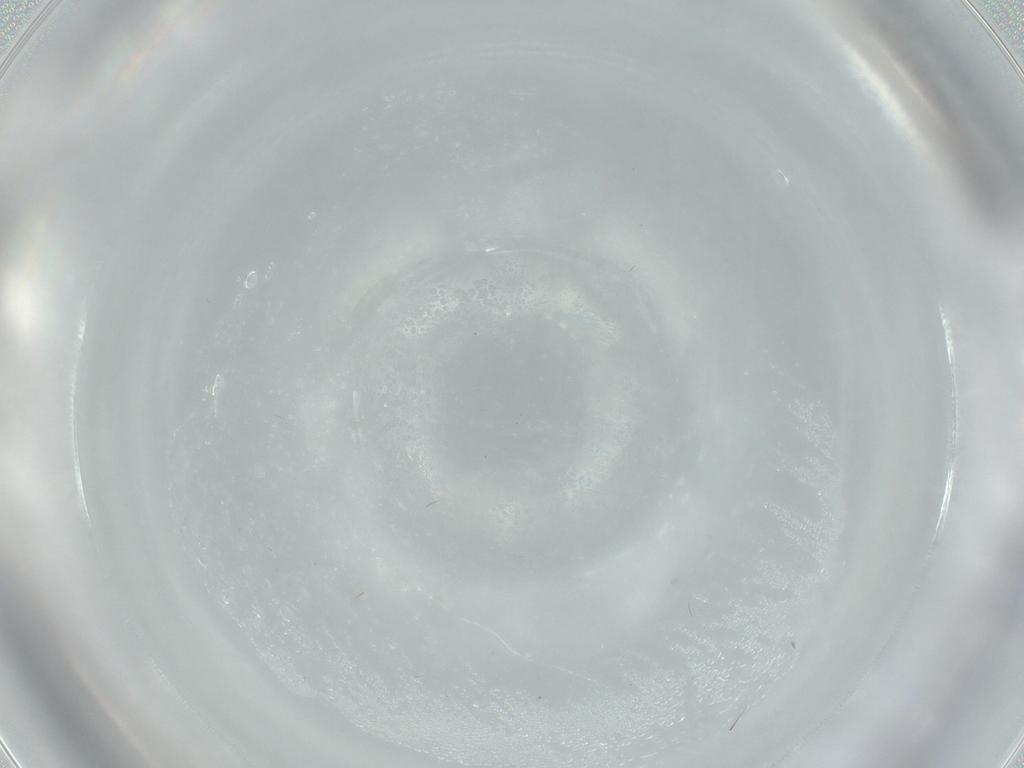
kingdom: Animalia
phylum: Arthropoda
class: Insecta
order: Diptera
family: Cecidomyiidae
